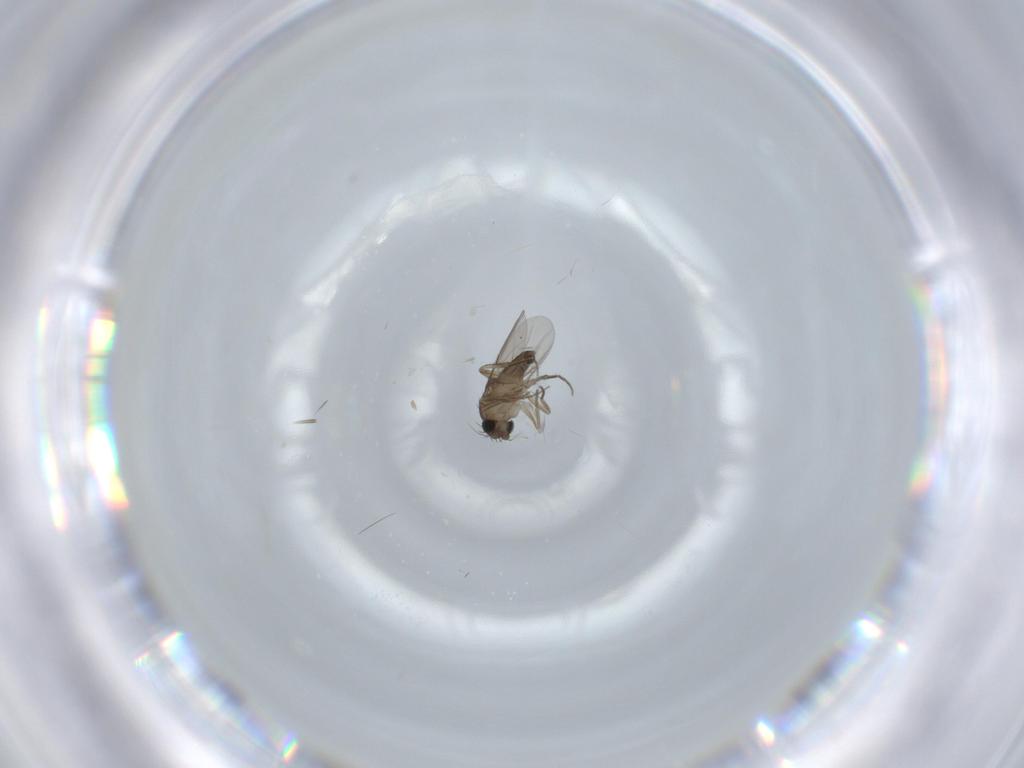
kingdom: Animalia
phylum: Arthropoda
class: Insecta
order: Diptera
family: Phoridae
